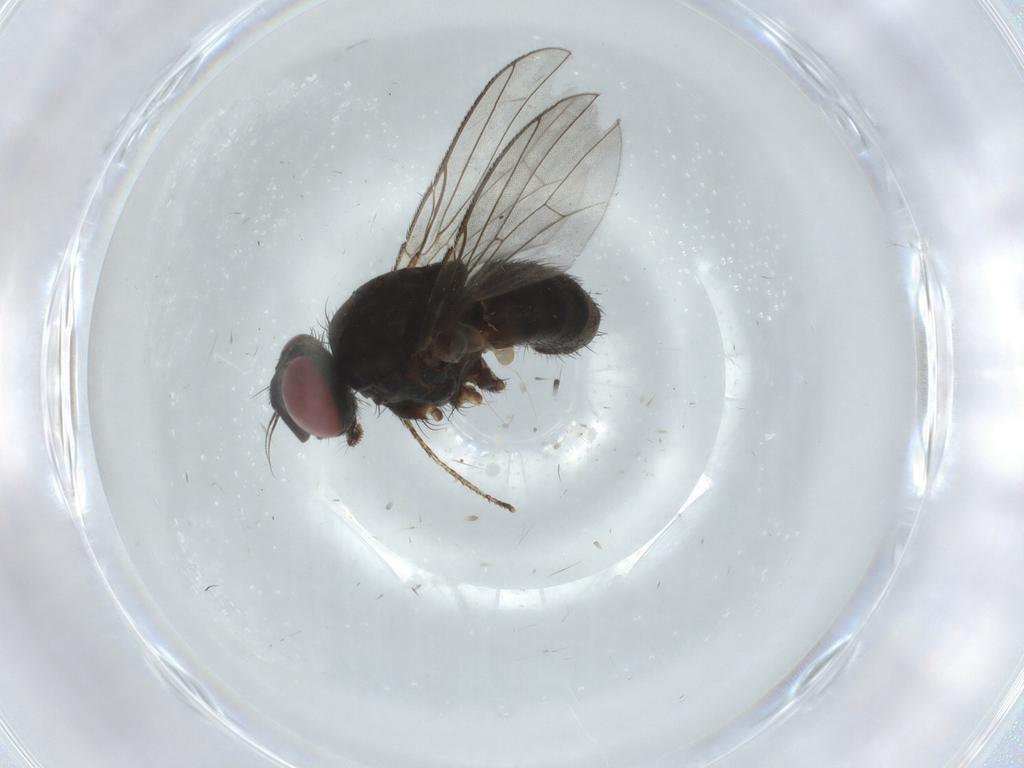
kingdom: Animalia
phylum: Arthropoda
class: Insecta
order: Diptera
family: Muscidae
